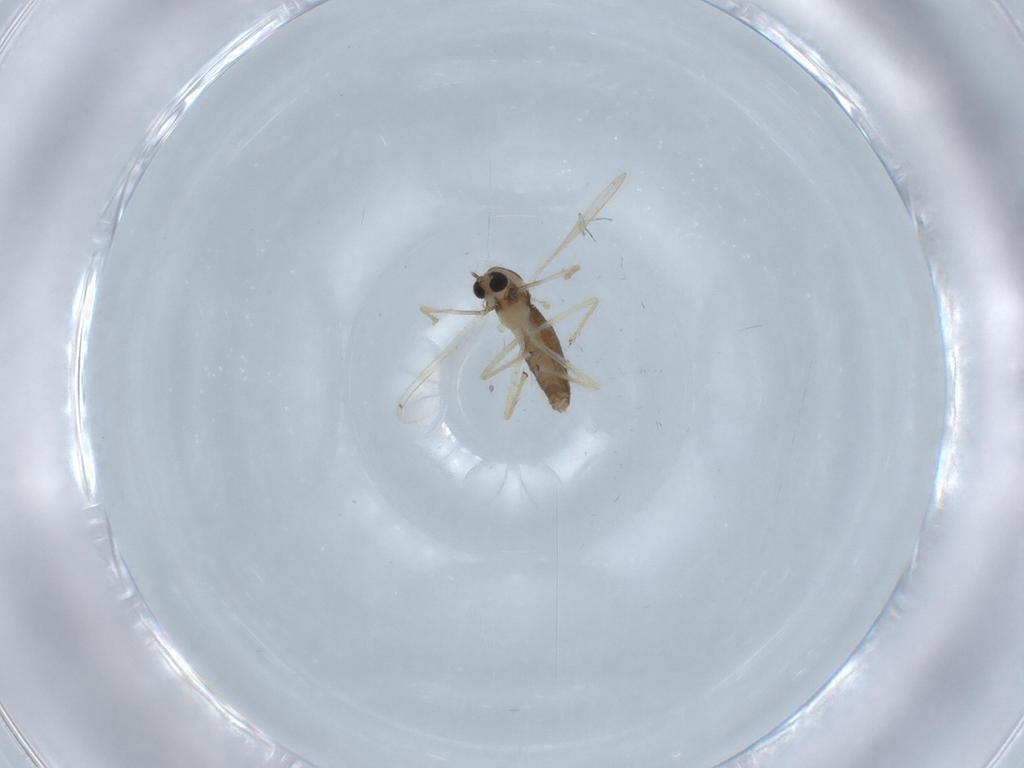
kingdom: Animalia
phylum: Arthropoda
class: Insecta
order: Diptera
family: Chironomidae
